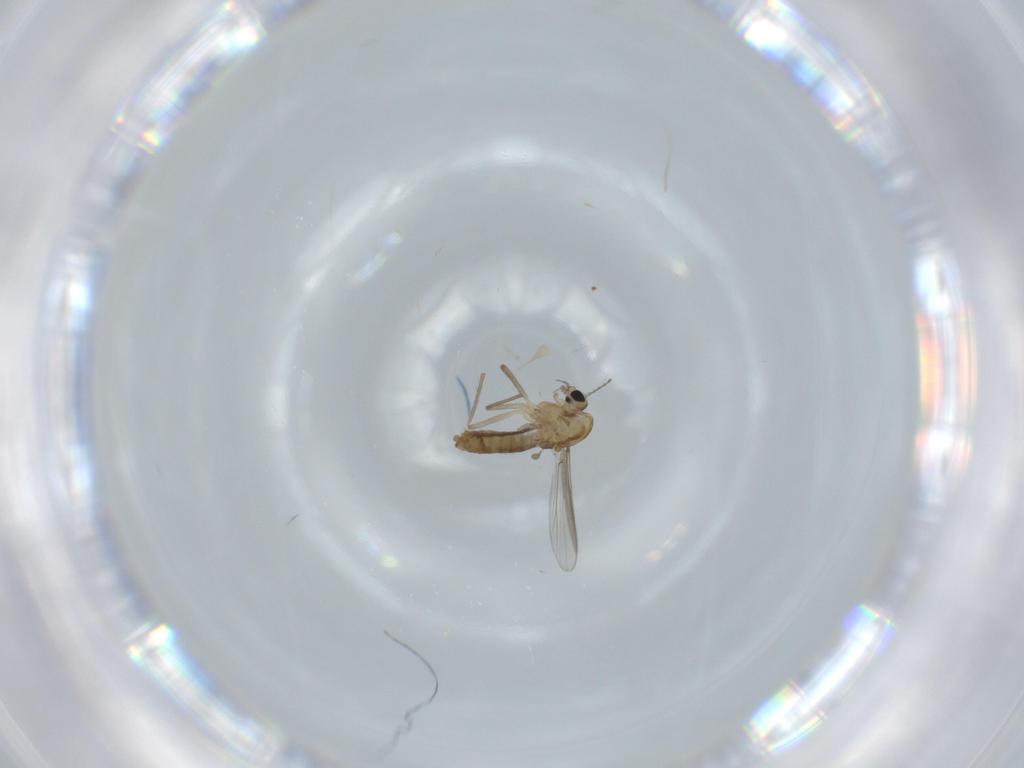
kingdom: Animalia
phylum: Arthropoda
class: Insecta
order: Diptera
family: Chironomidae
